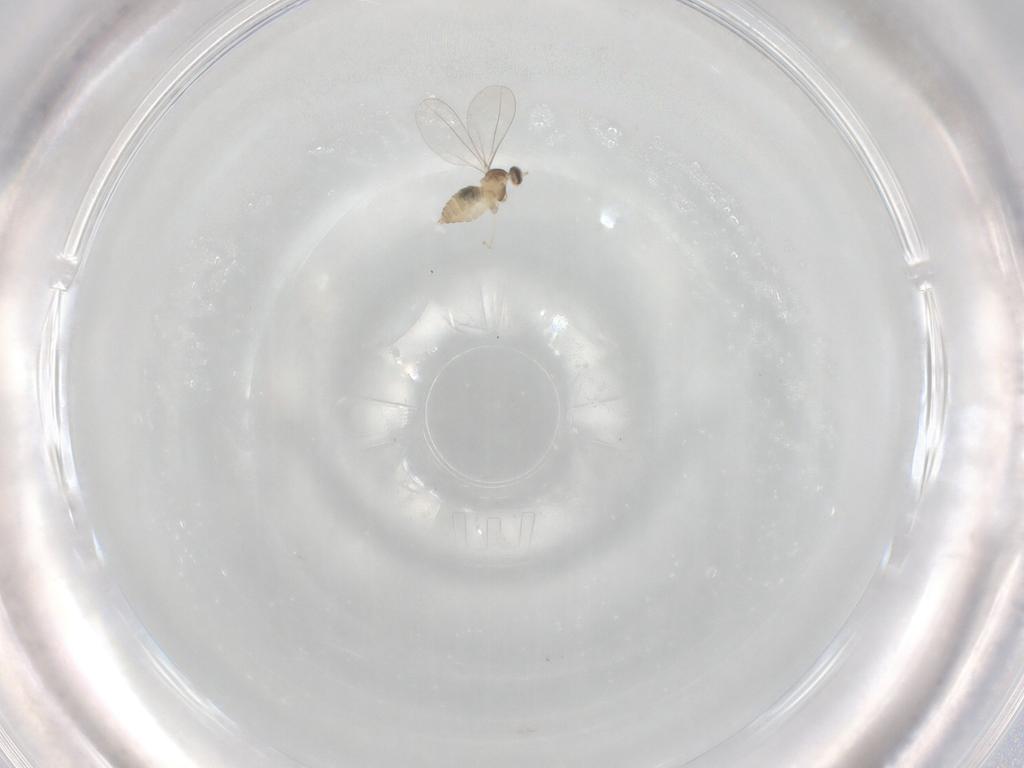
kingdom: Animalia
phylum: Arthropoda
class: Insecta
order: Diptera
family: Cecidomyiidae
